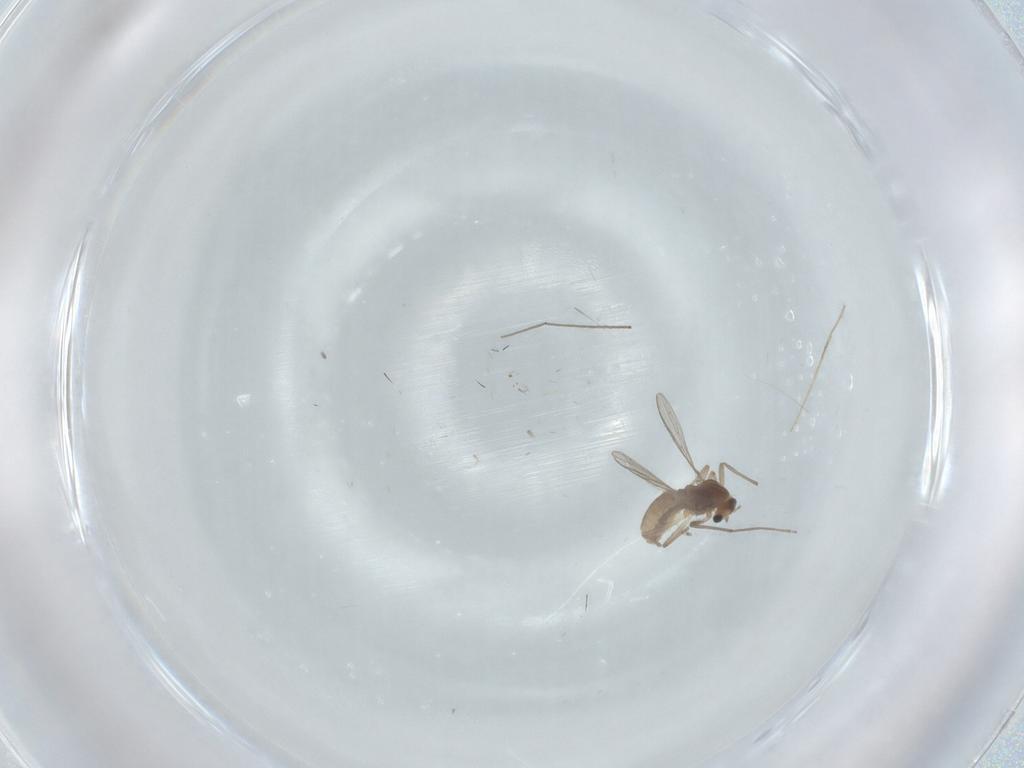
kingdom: Animalia
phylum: Arthropoda
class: Insecta
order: Diptera
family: Chironomidae
